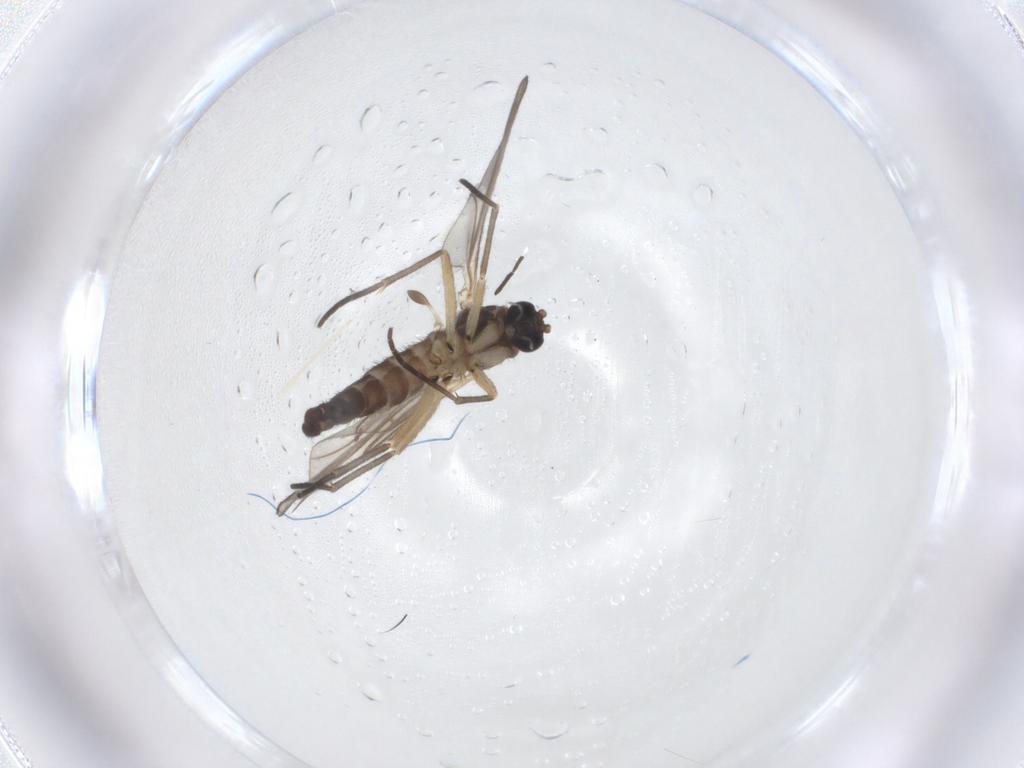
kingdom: Animalia
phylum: Arthropoda
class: Insecta
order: Diptera
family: Sciaridae
